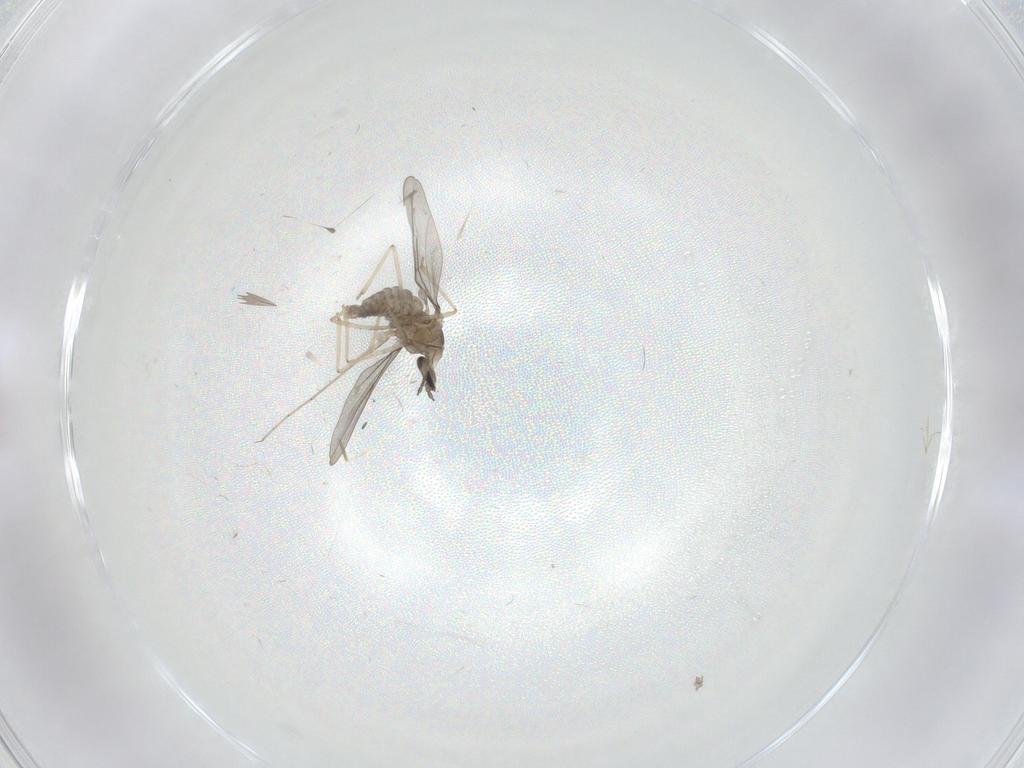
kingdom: Animalia
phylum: Arthropoda
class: Insecta
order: Diptera
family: Cecidomyiidae
